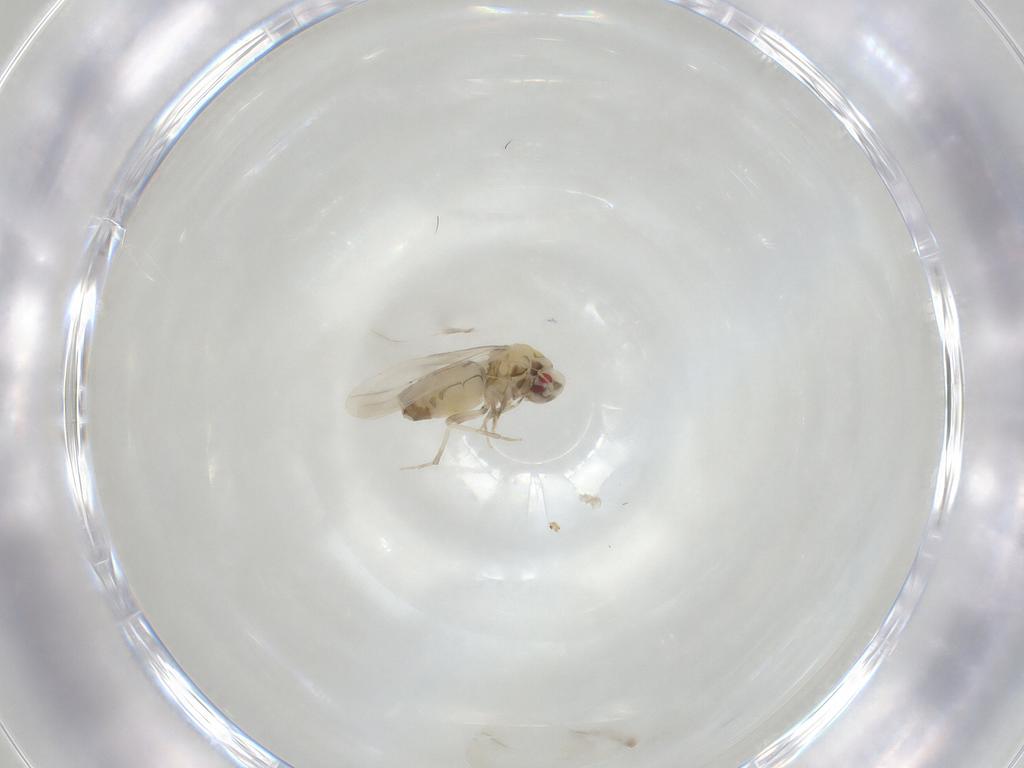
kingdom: Animalia
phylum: Arthropoda
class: Insecta
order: Hemiptera
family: Aleyrodidae
